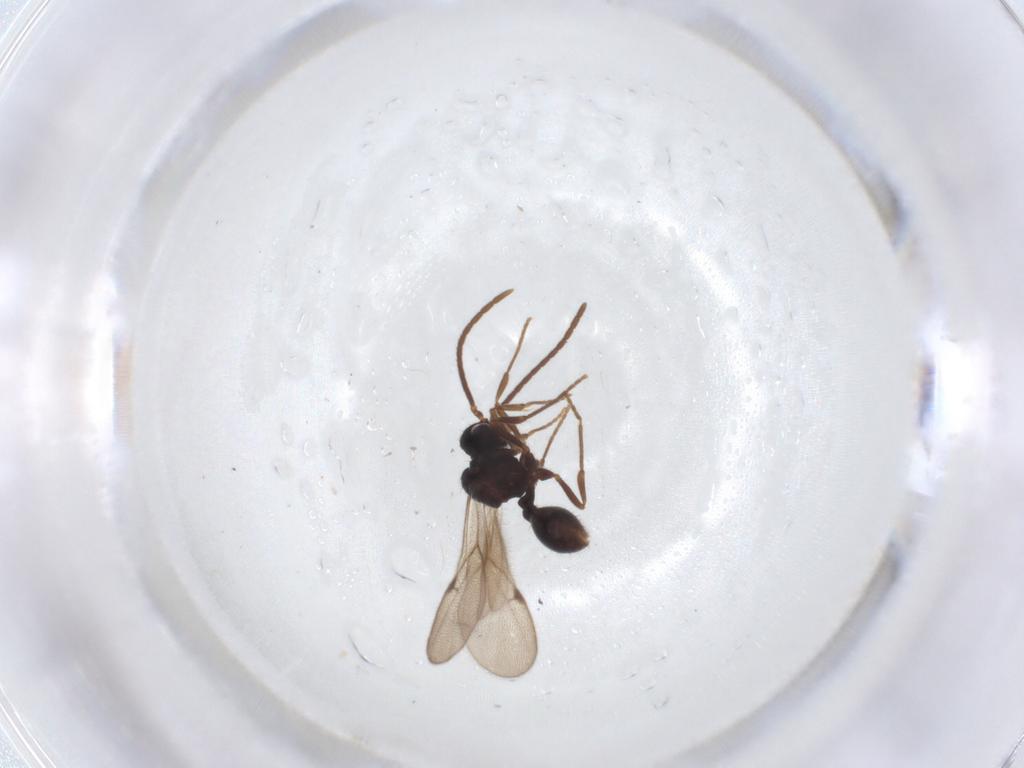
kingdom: Animalia
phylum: Arthropoda
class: Insecta
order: Hymenoptera
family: Formicidae
